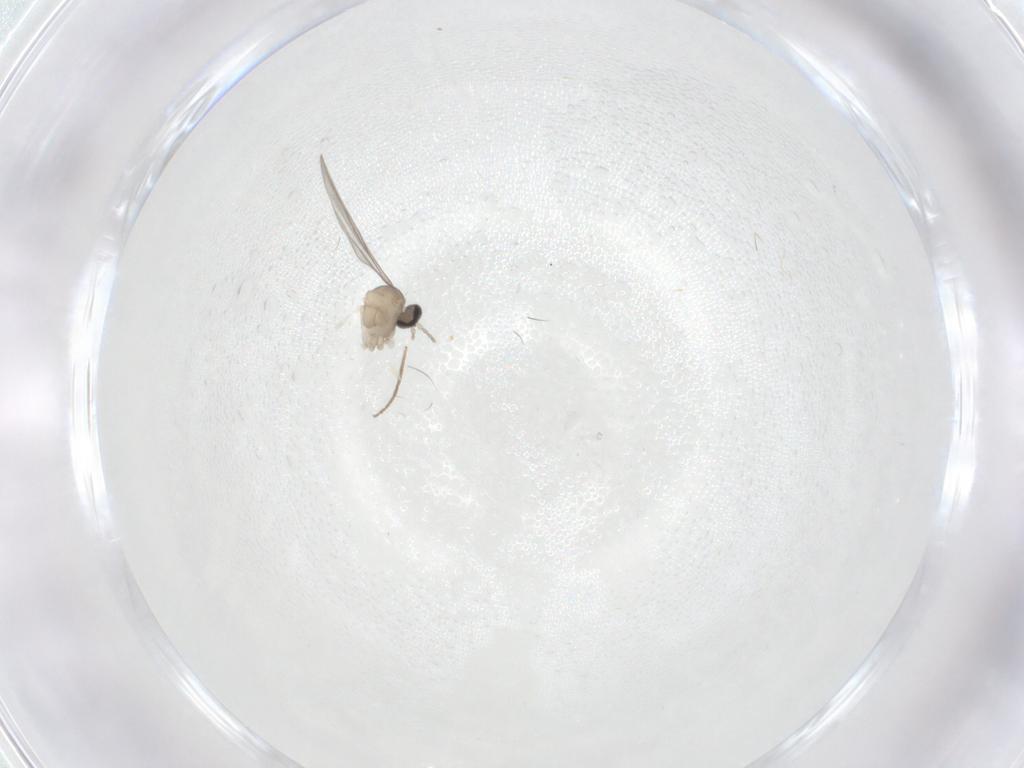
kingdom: Animalia
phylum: Arthropoda
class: Insecta
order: Diptera
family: Cecidomyiidae
